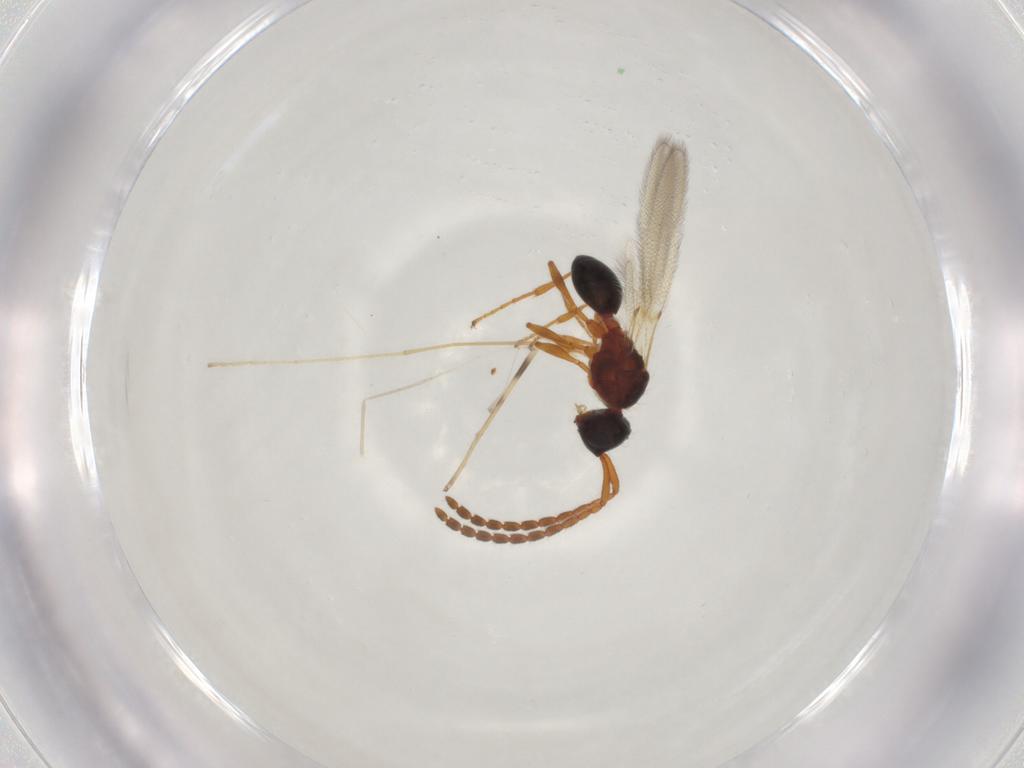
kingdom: Animalia
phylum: Arthropoda
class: Insecta
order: Hymenoptera
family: Diapriidae
